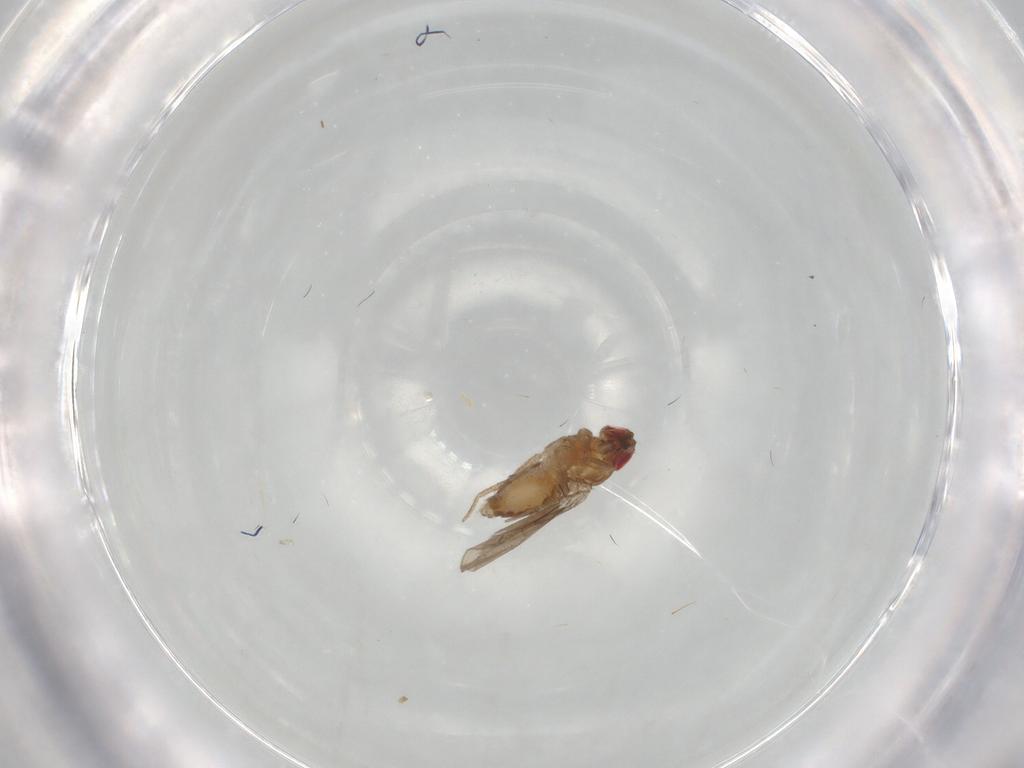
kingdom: Animalia
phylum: Arthropoda
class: Insecta
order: Diptera
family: Drosophilidae
